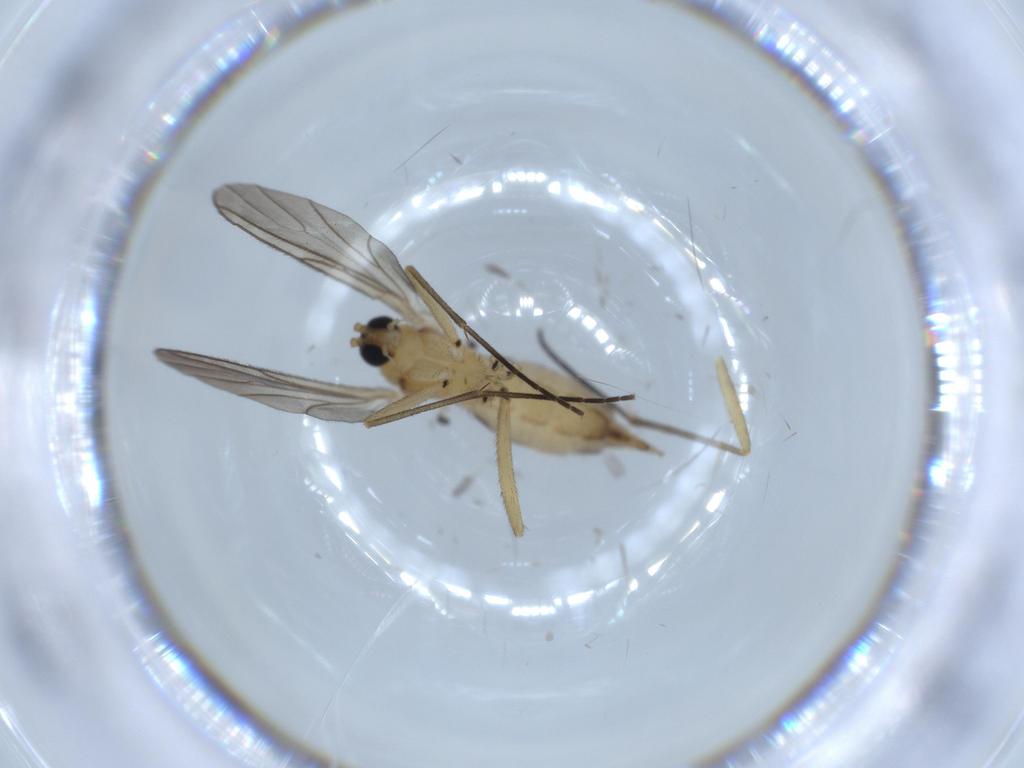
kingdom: Animalia
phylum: Arthropoda
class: Insecta
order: Diptera
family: Sciaridae
